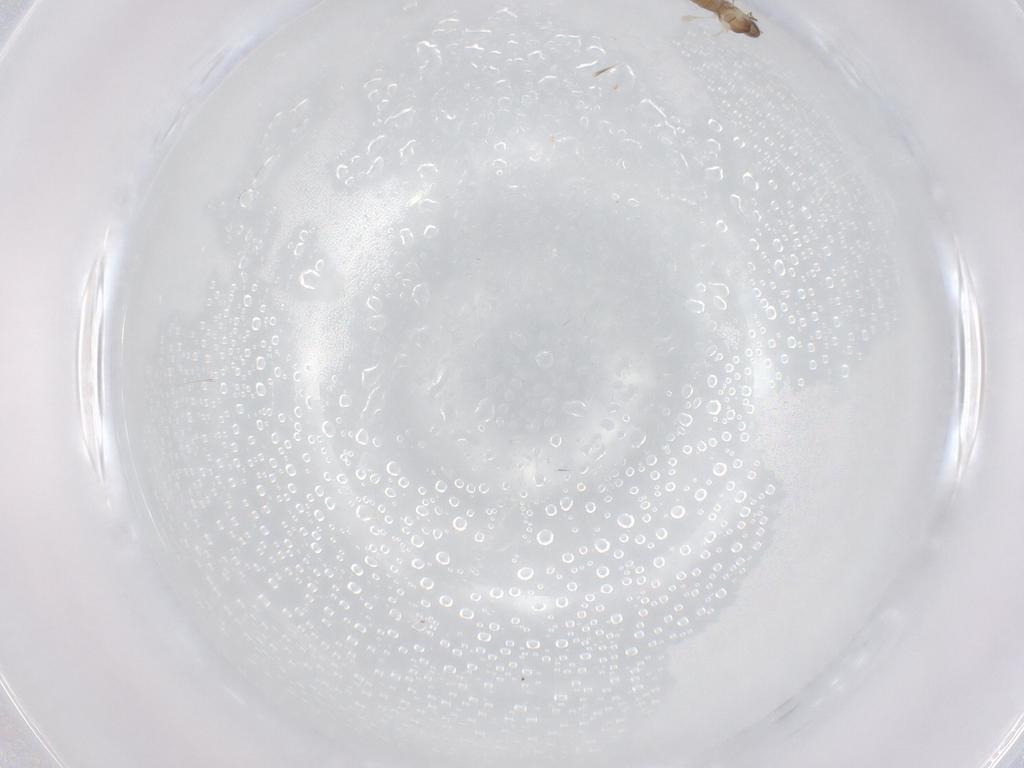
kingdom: Animalia
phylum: Arthropoda
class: Insecta
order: Diptera
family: Cecidomyiidae
